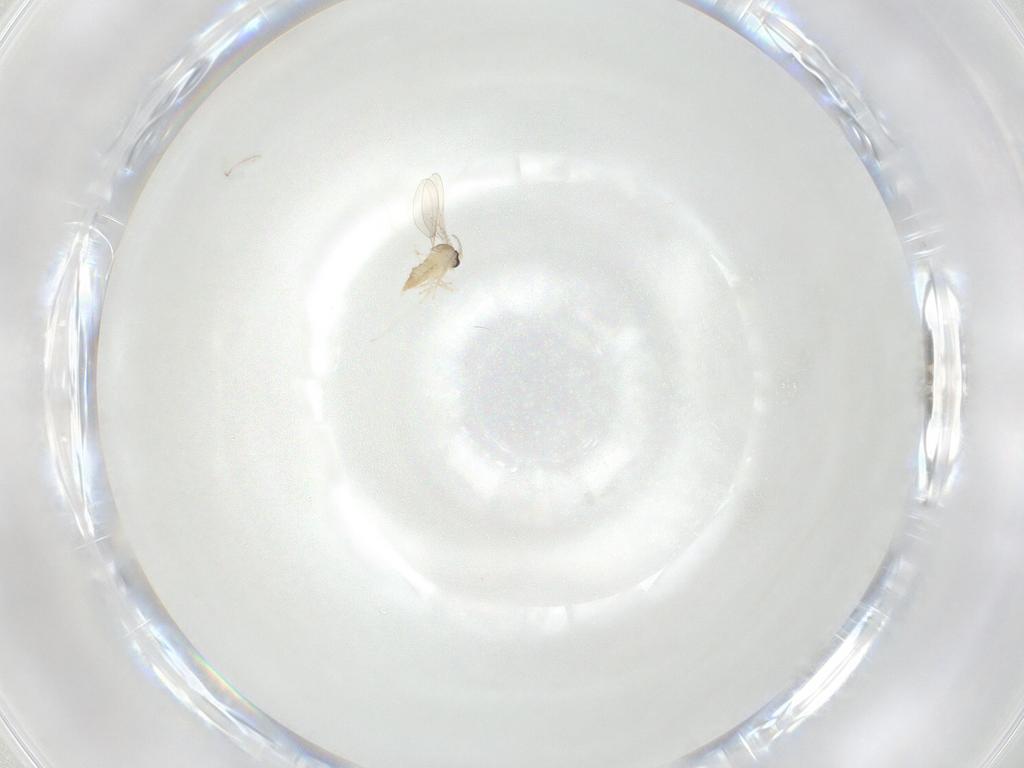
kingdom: Animalia
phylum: Arthropoda
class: Insecta
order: Diptera
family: Cecidomyiidae
